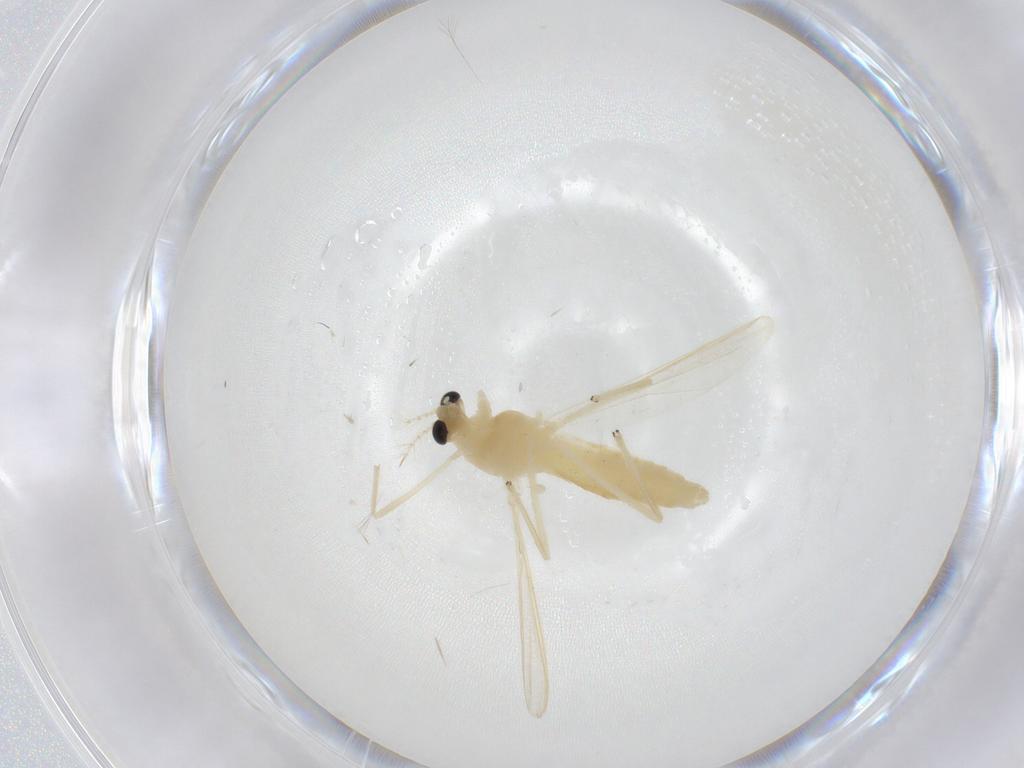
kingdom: Animalia
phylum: Arthropoda
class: Insecta
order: Diptera
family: Chironomidae
